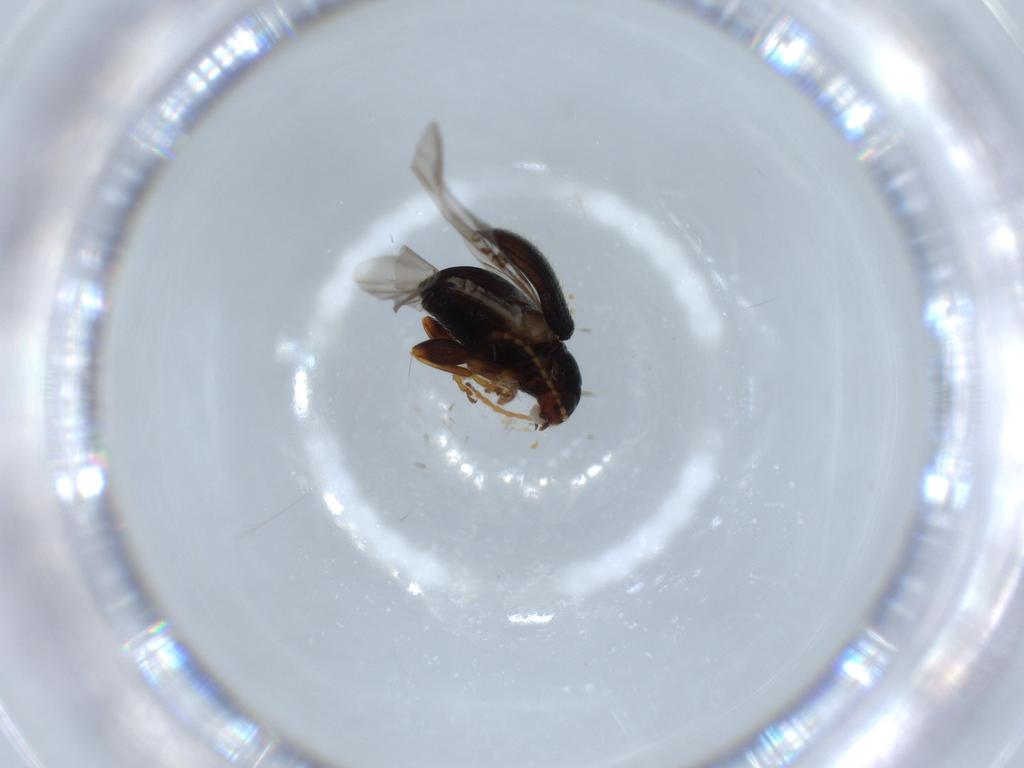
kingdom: Animalia
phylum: Arthropoda
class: Insecta
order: Coleoptera
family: Chrysomelidae
